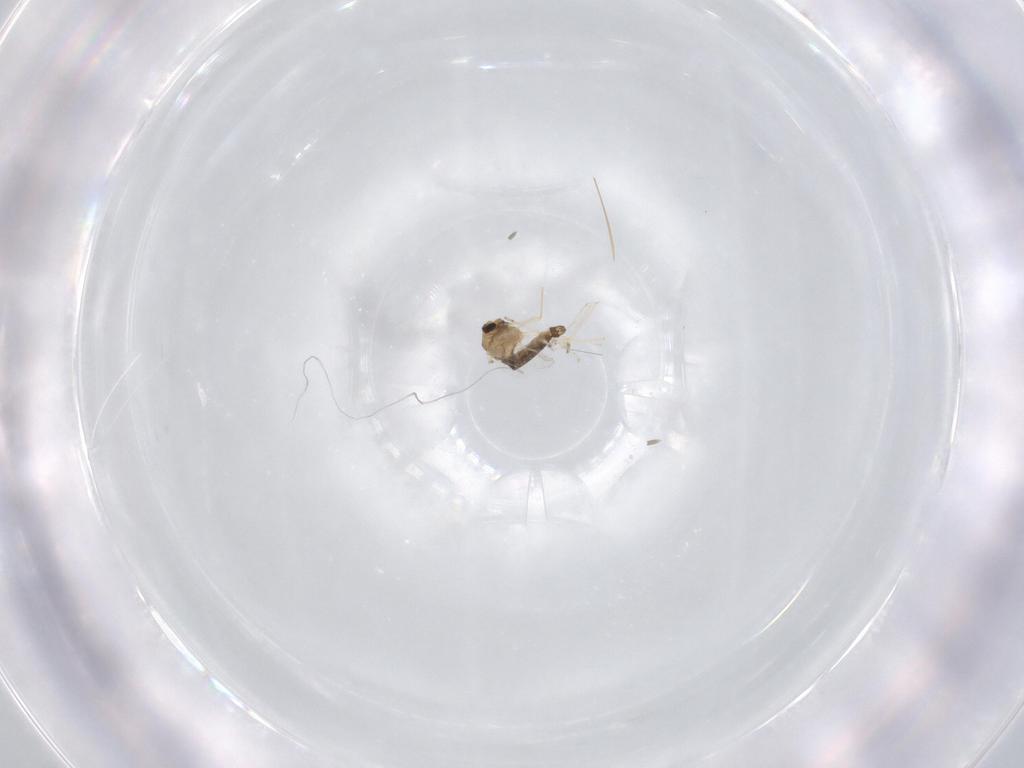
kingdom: Animalia
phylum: Arthropoda
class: Insecta
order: Diptera
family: Chironomidae
